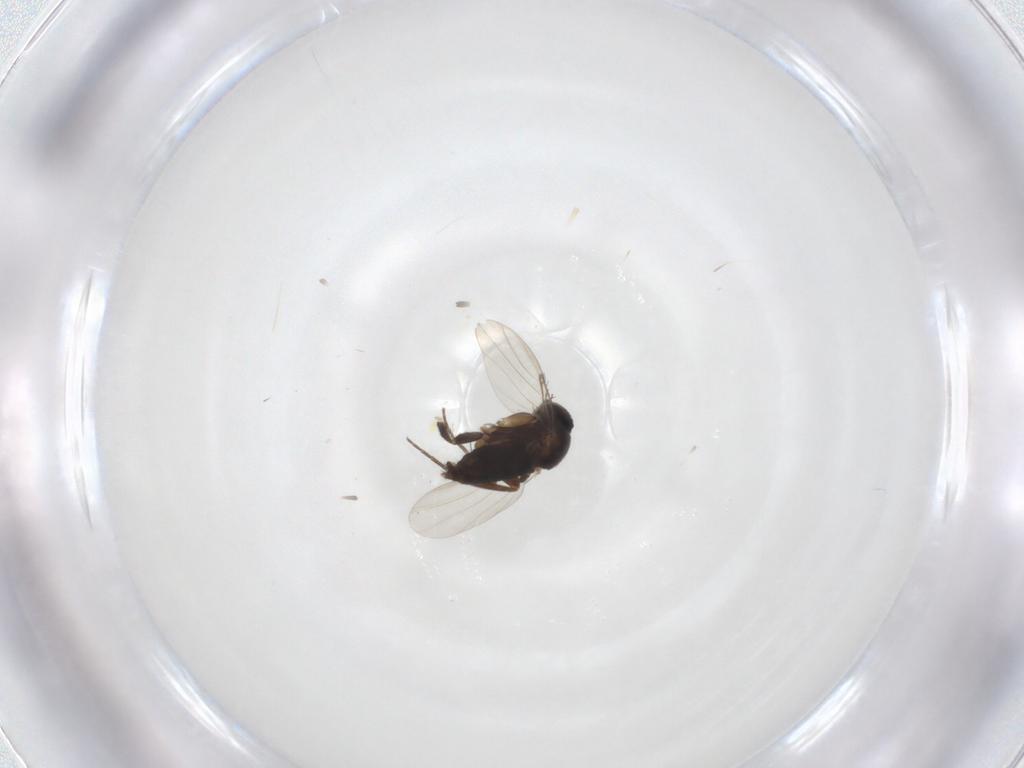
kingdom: Animalia
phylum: Arthropoda
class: Insecta
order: Diptera
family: Phoridae
